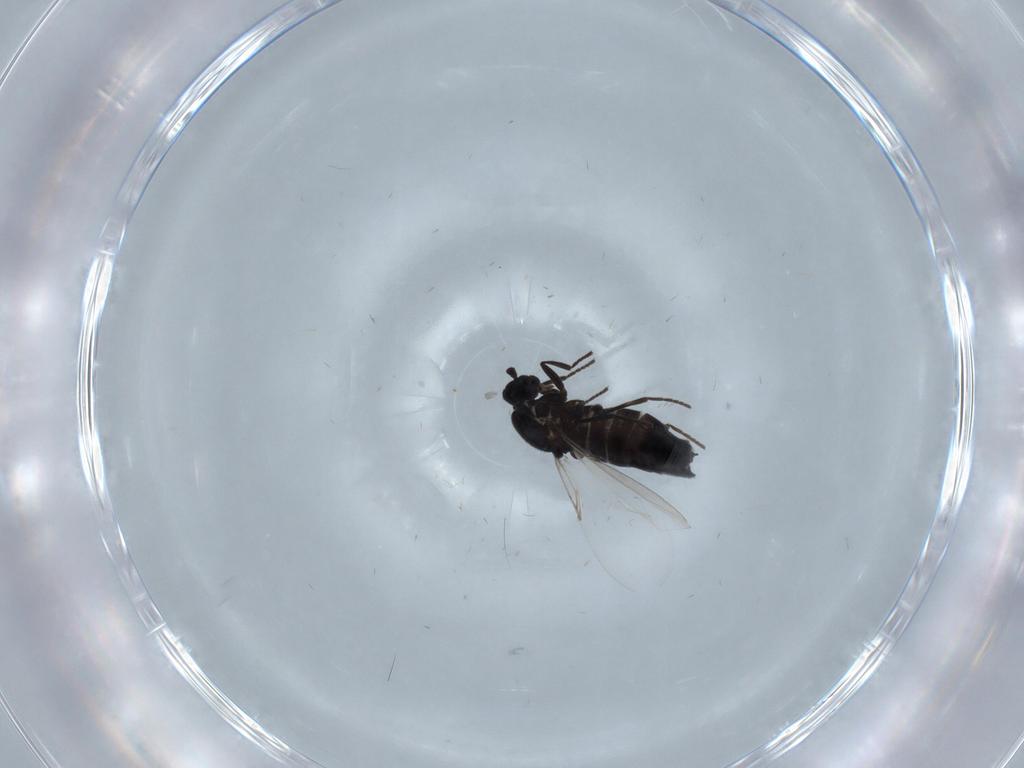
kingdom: Animalia
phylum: Arthropoda
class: Insecta
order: Diptera
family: Scatopsidae
